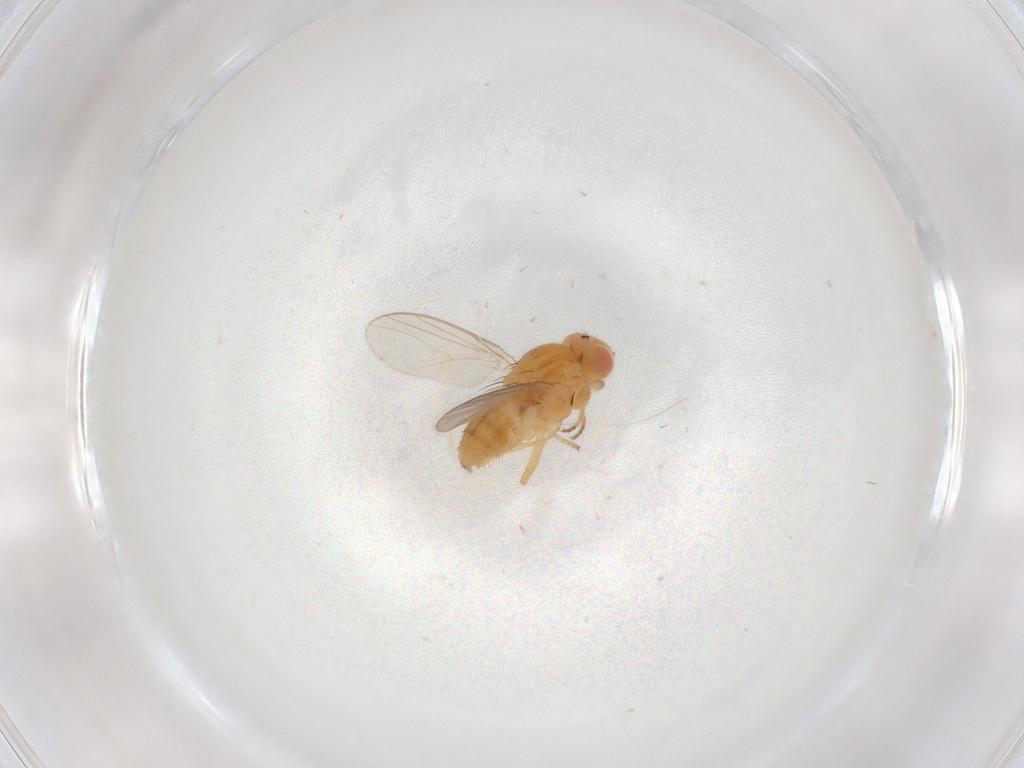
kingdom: Animalia
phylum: Arthropoda
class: Insecta
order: Diptera
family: Chloropidae
